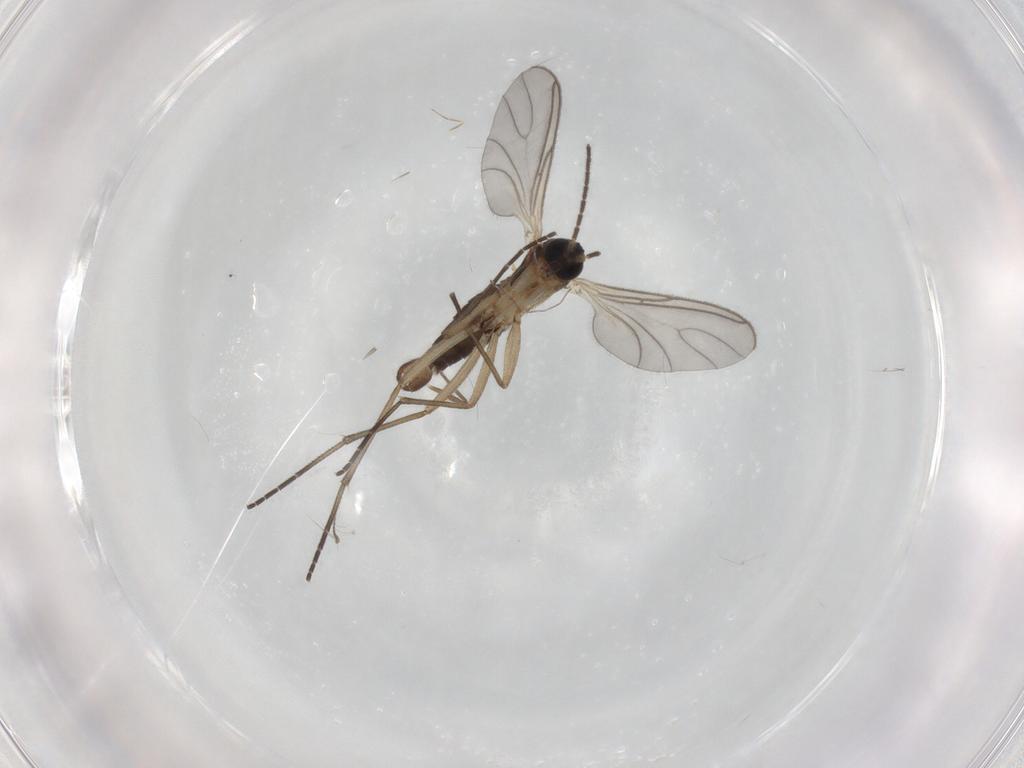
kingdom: Animalia
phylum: Arthropoda
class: Insecta
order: Diptera
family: Sciaridae
